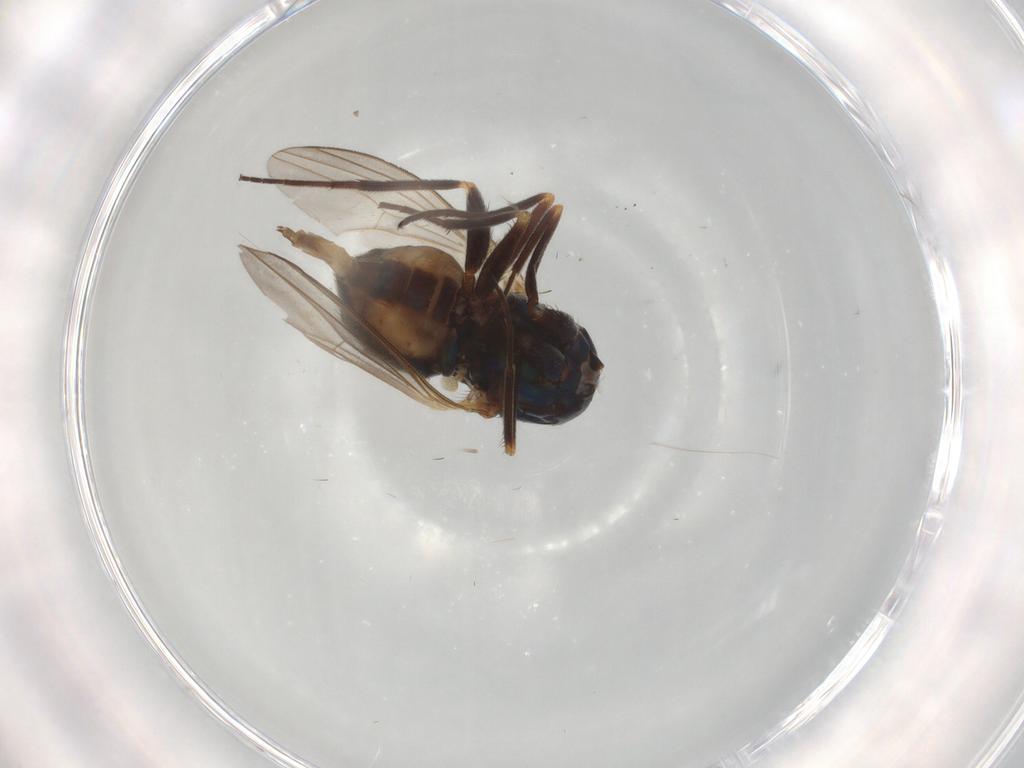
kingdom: Animalia
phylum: Arthropoda
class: Insecta
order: Diptera
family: Dolichopodidae
